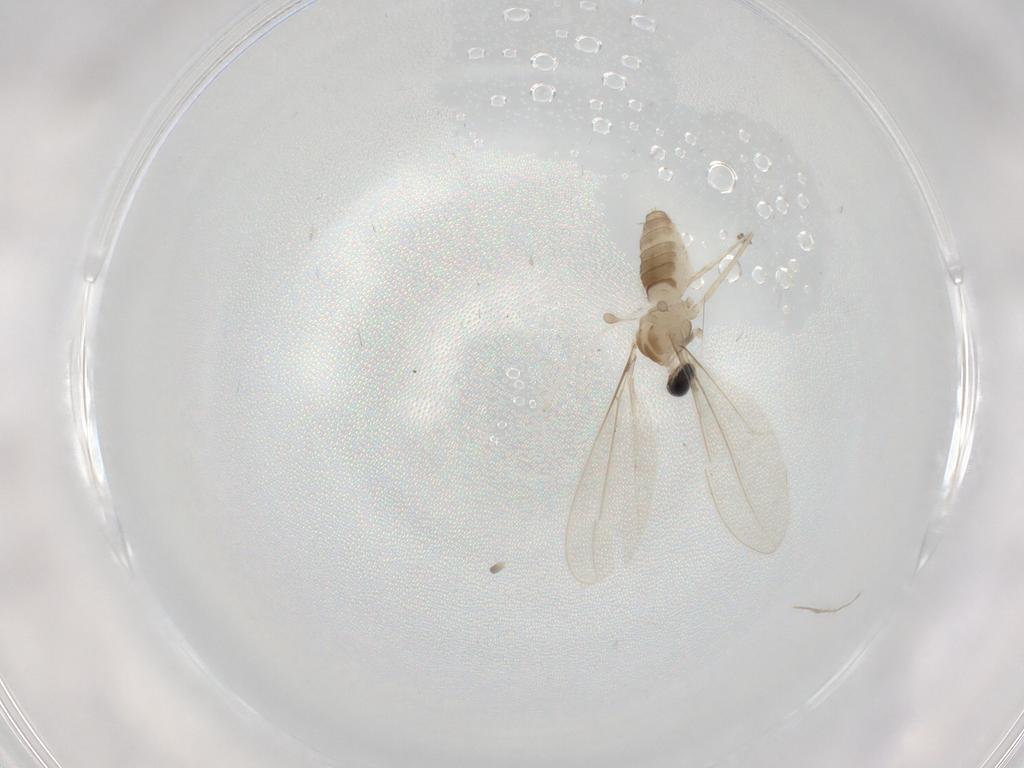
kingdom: Animalia
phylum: Arthropoda
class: Insecta
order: Diptera
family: Cecidomyiidae
